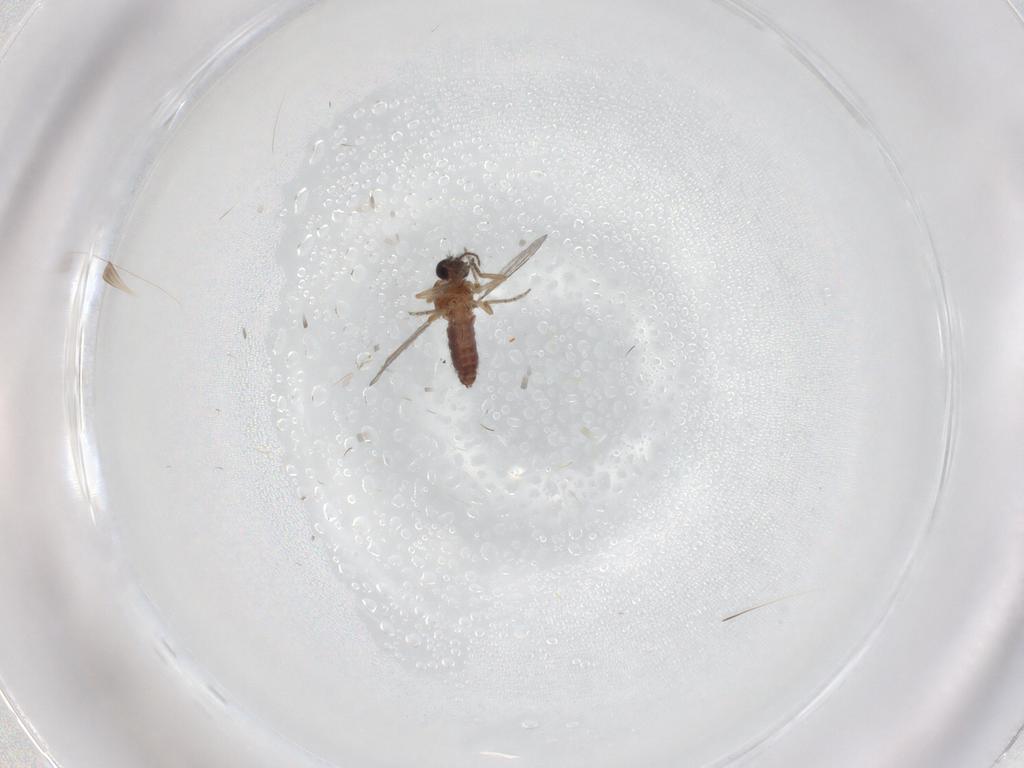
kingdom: Animalia
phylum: Arthropoda
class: Insecta
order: Diptera
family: Ceratopogonidae
